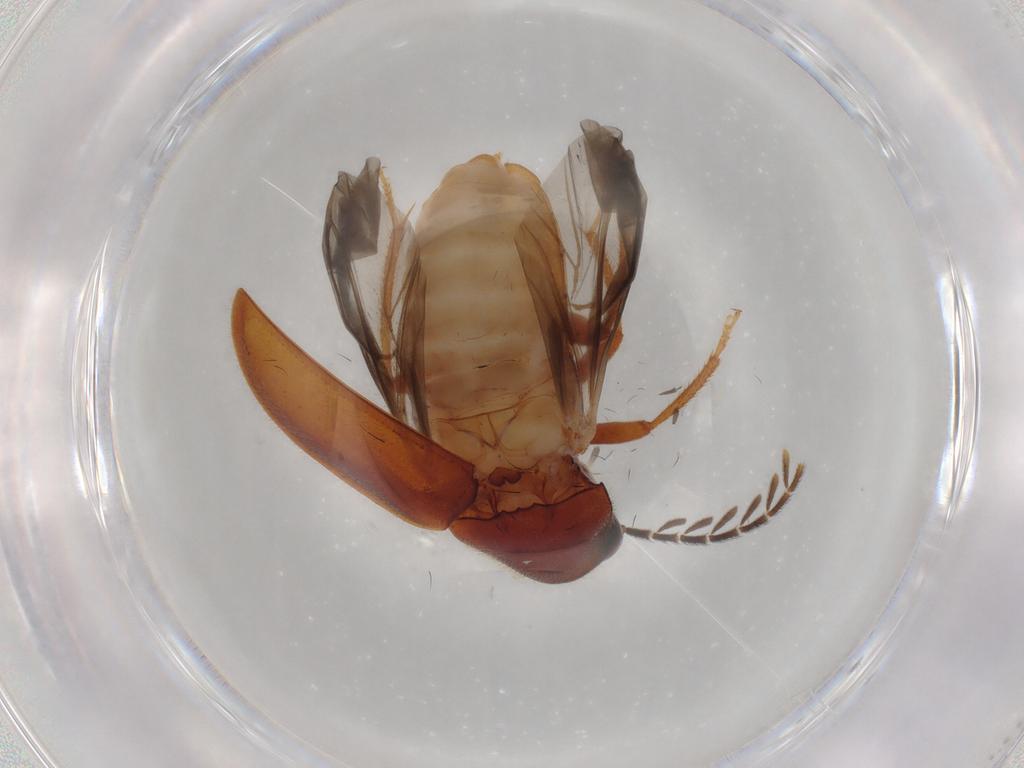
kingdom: Animalia
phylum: Arthropoda
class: Insecta
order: Coleoptera
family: Ptilodactylidae
